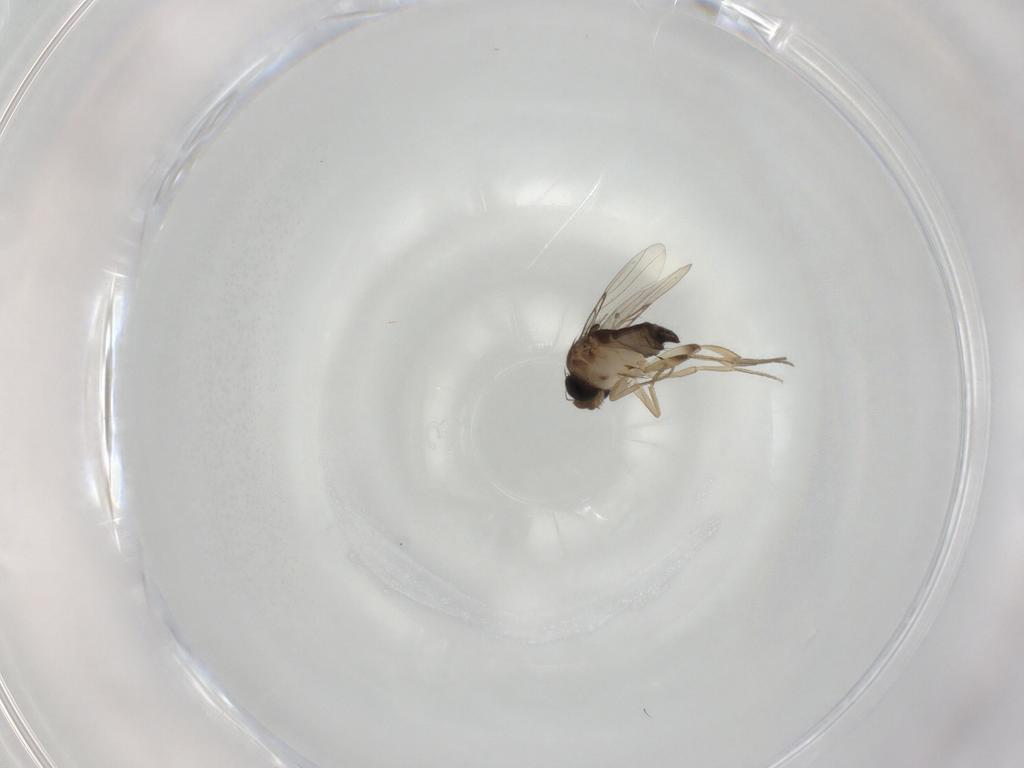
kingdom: Animalia
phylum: Arthropoda
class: Insecta
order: Diptera
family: Phoridae
